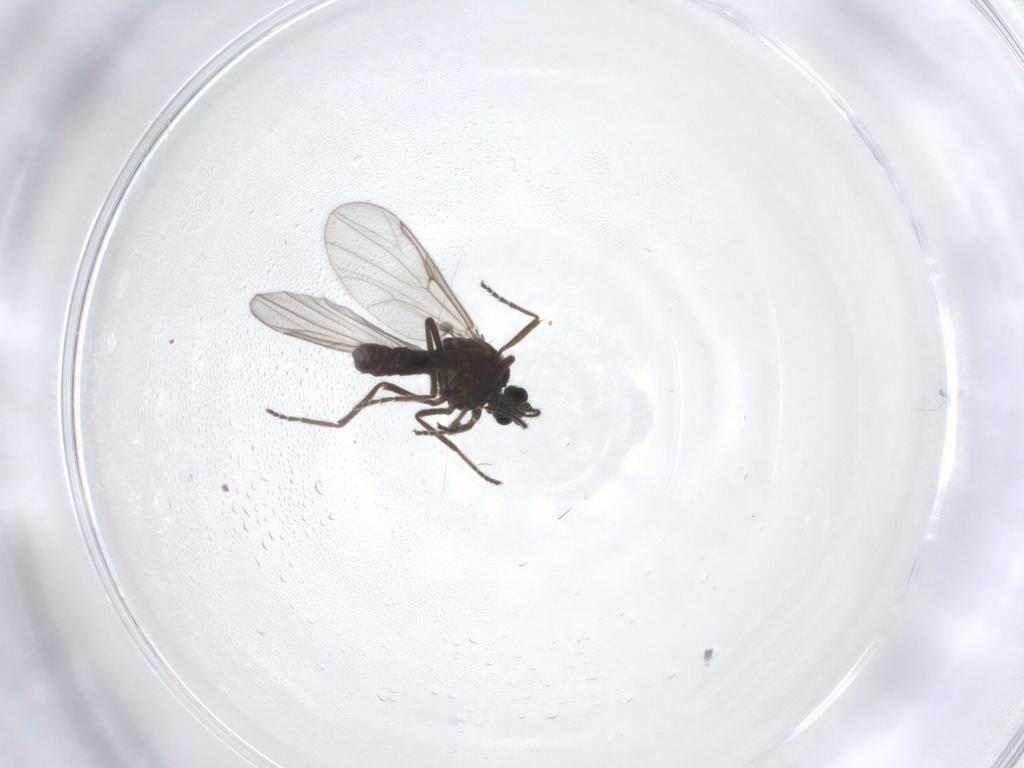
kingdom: Animalia
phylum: Arthropoda
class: Insecta
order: Diptera
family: Ceratopogonidae
